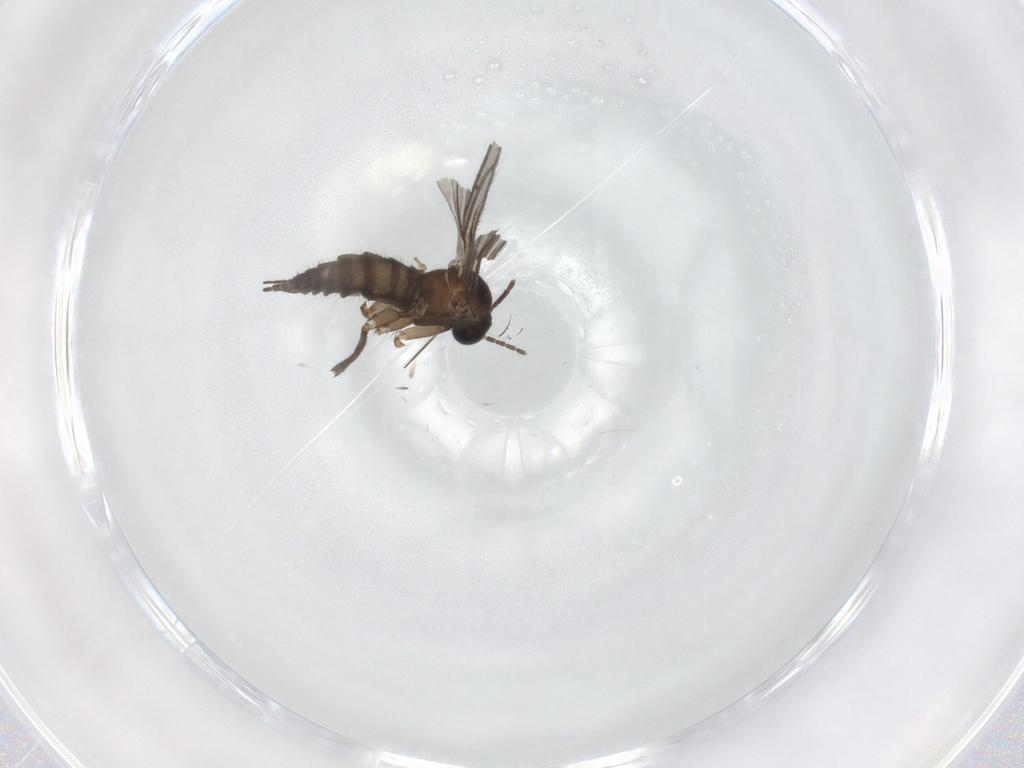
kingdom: Animalia
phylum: Arthropoda
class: Insecta
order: Diptera
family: Cecidomyiidae
